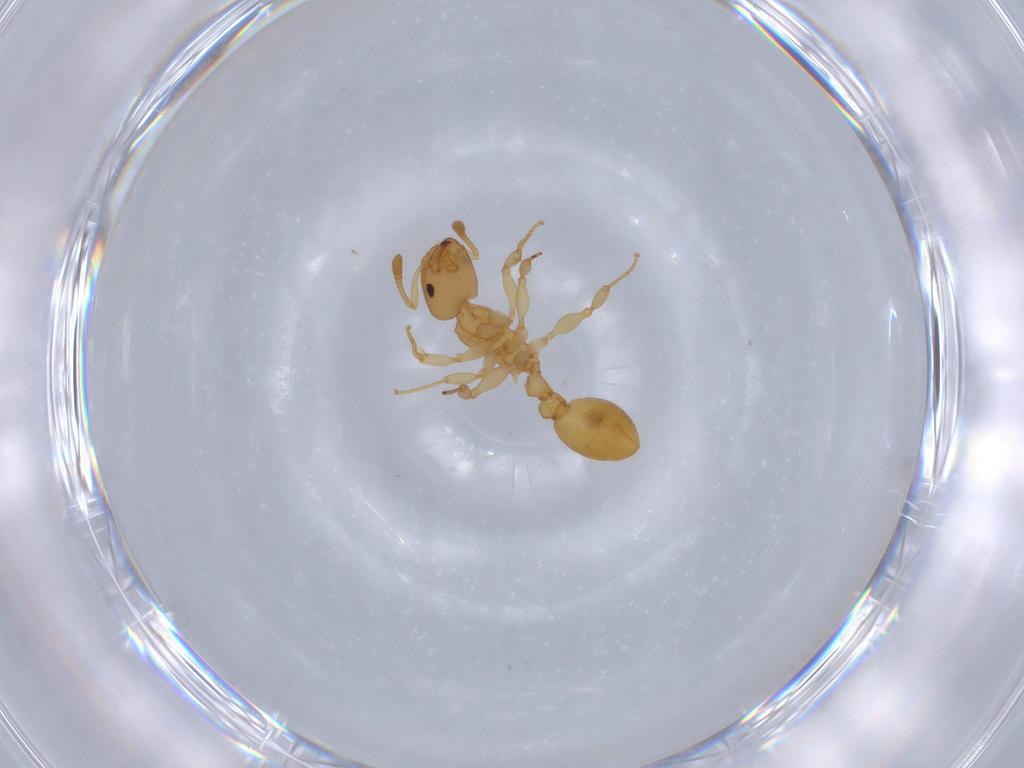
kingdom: Animalia
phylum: Arthropoda
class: Insecta
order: Hymenoptera
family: Formicidae
